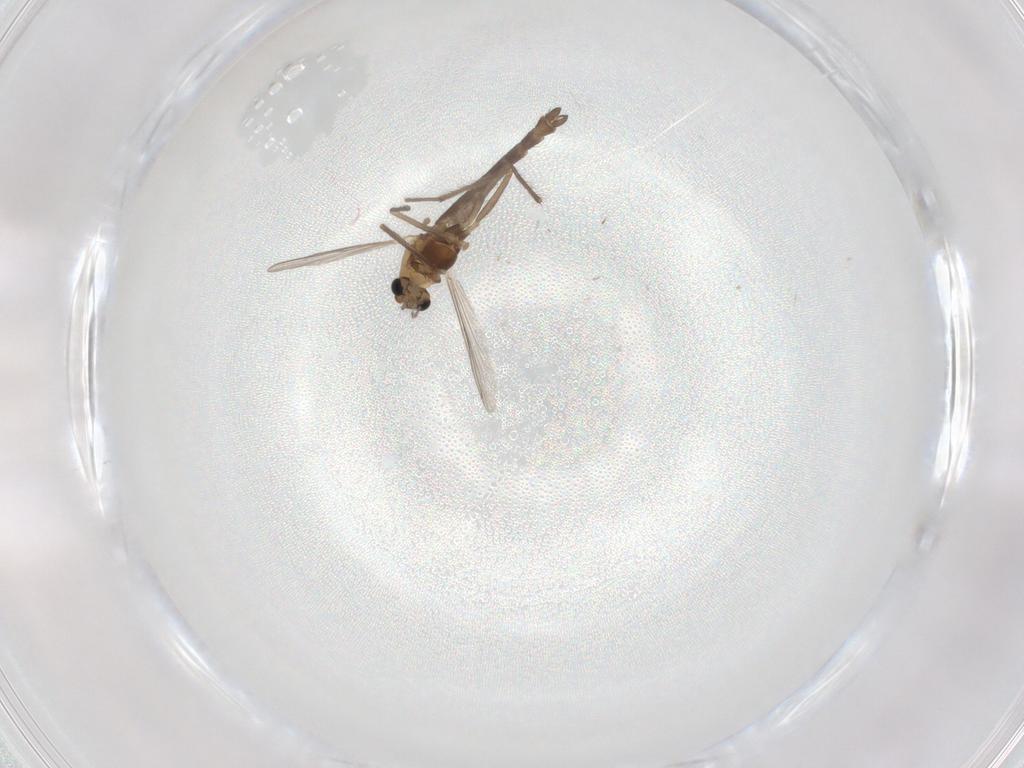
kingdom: Animalia
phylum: Arthropoda
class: Insecta
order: Diptera
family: Chironomidae
